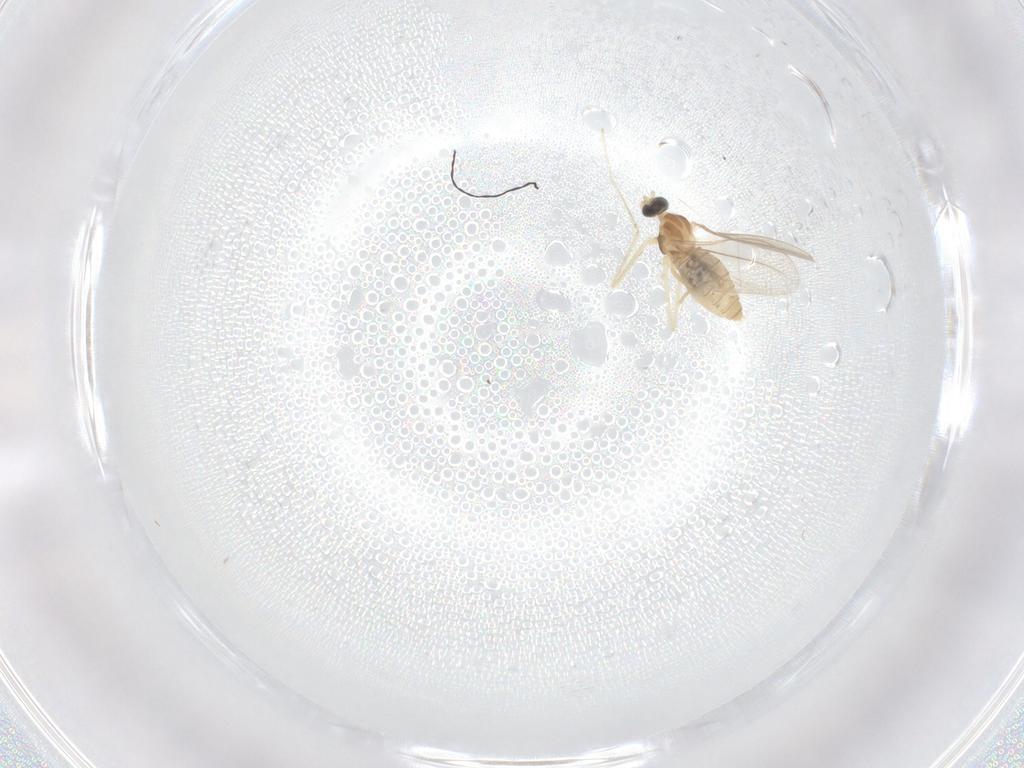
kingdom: Animalia
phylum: Arthropoda
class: Insecta
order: Diptera
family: Cecidomyiidae
